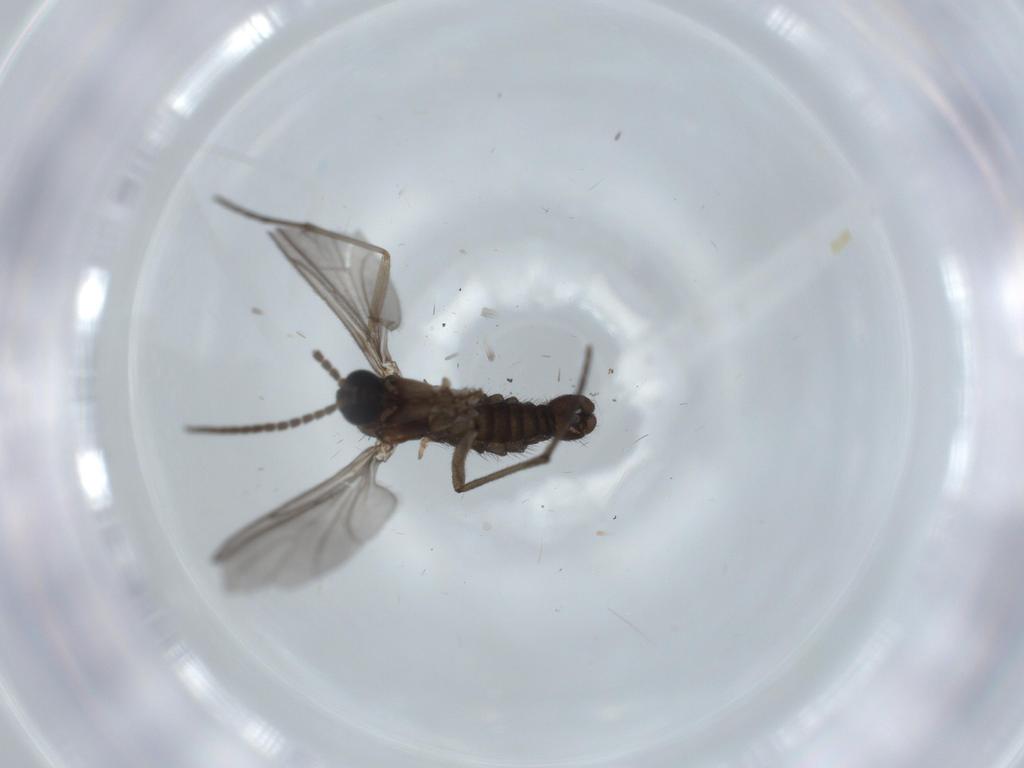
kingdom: Animalia
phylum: Arthropoda
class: Insecta
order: Diptera
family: Sciaridae
